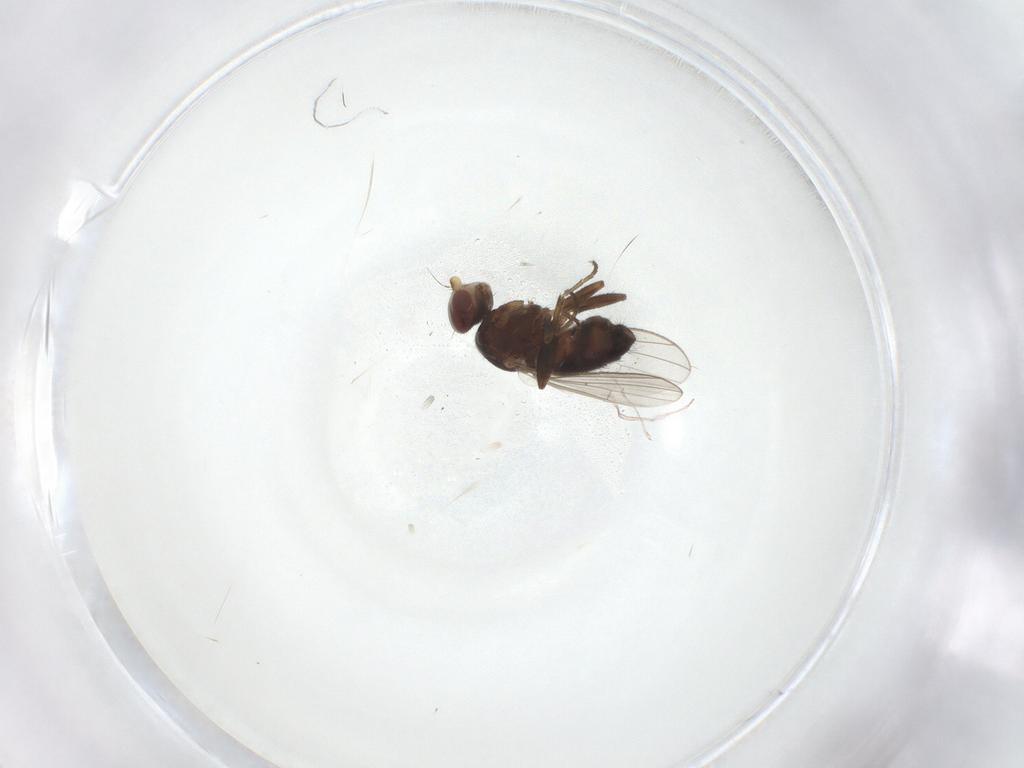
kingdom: Animalia
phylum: Arthropoda
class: Insecta
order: Diptera
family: Heleomyzidae
